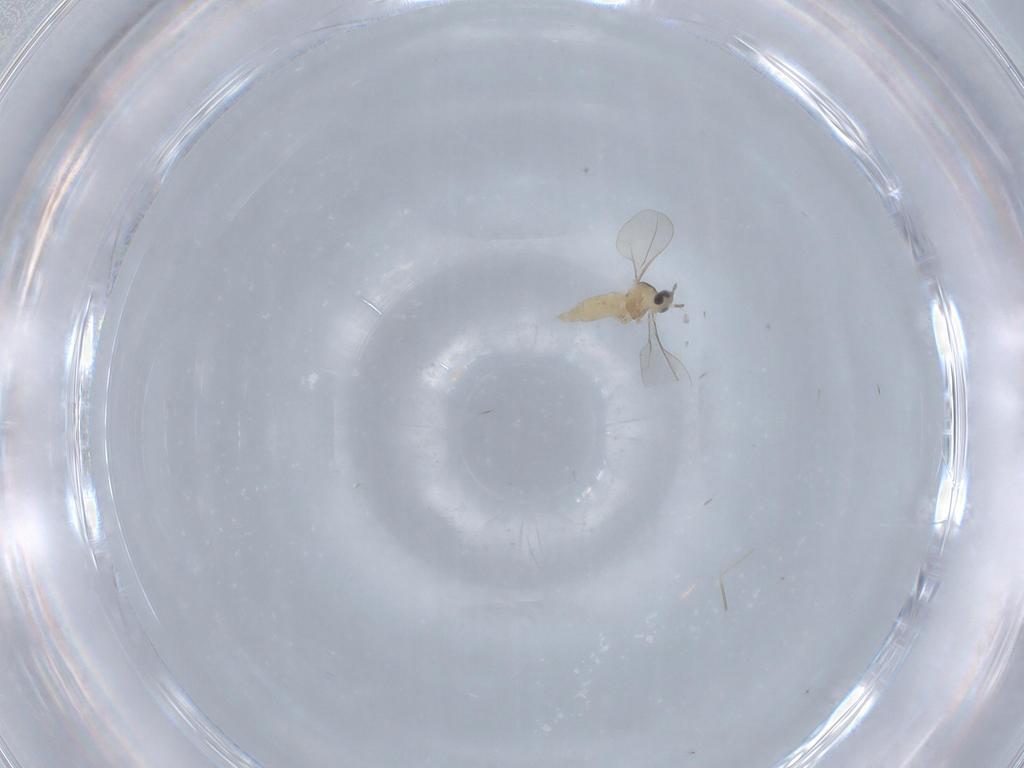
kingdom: Animalia
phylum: Arthropoda
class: Insecta
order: Diptera
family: Cecidomyiidae
